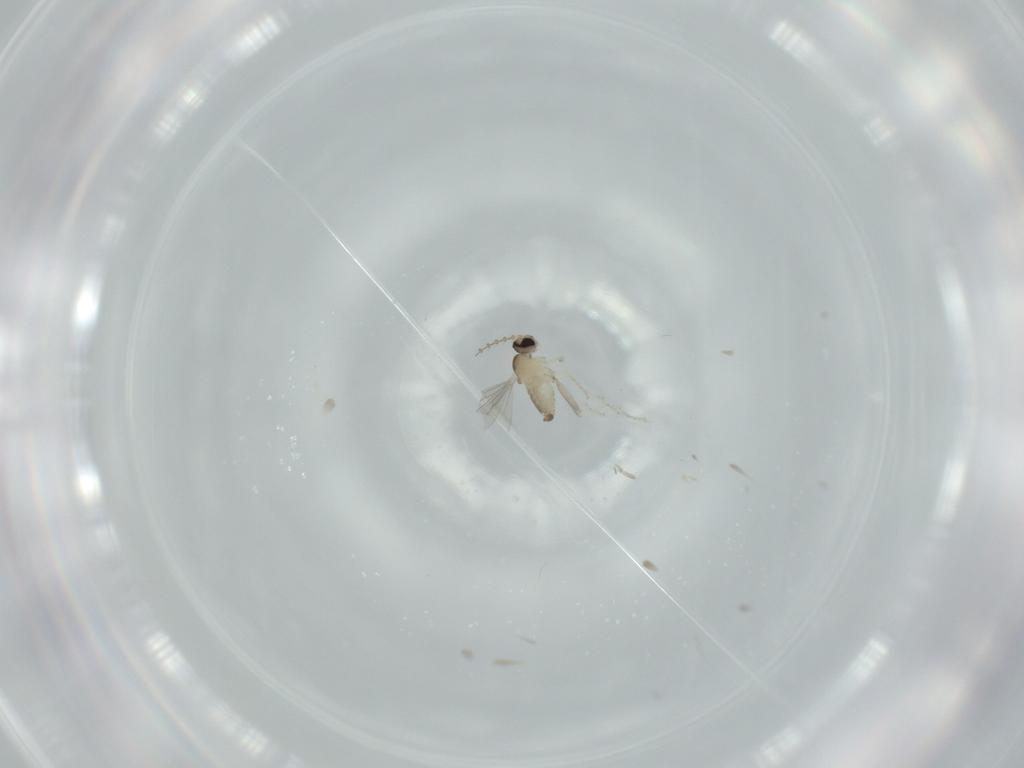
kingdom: Animalia
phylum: Arthropoda
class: Insecta
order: Diptera
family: Cecidomyiidae
